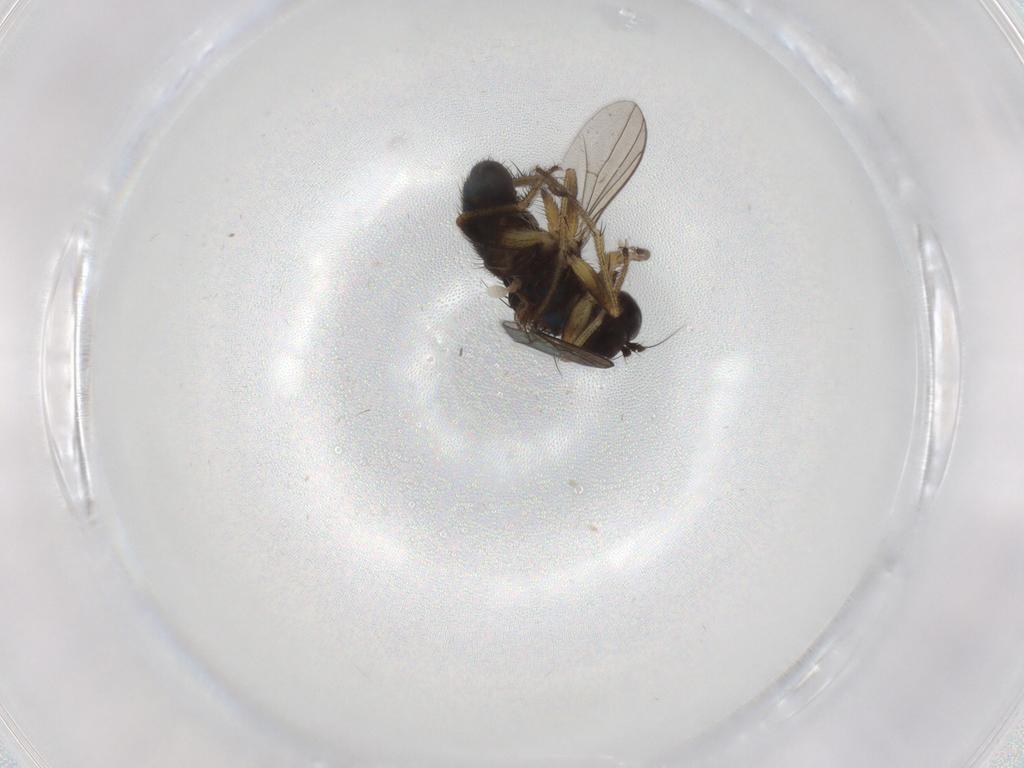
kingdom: Animalia
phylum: Arthropoda
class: Insecta
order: Diptera
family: Dolichopodidae
